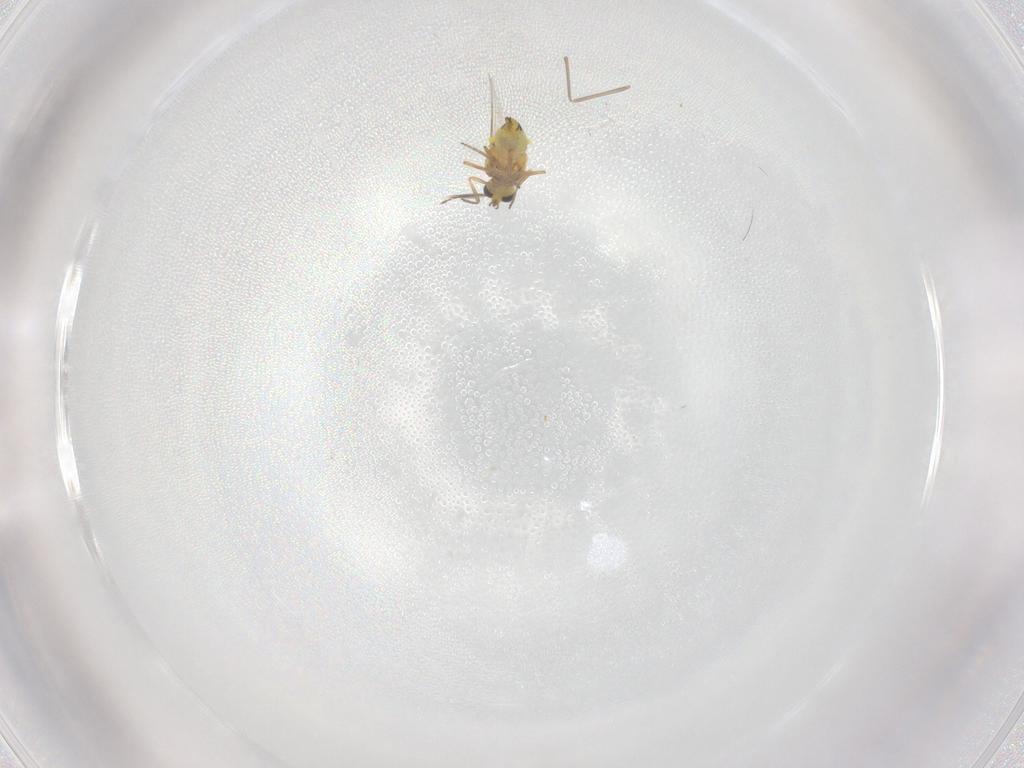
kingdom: Animalia
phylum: Arthropoda
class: Insecta
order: Diptera
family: Ceratopogonidae
